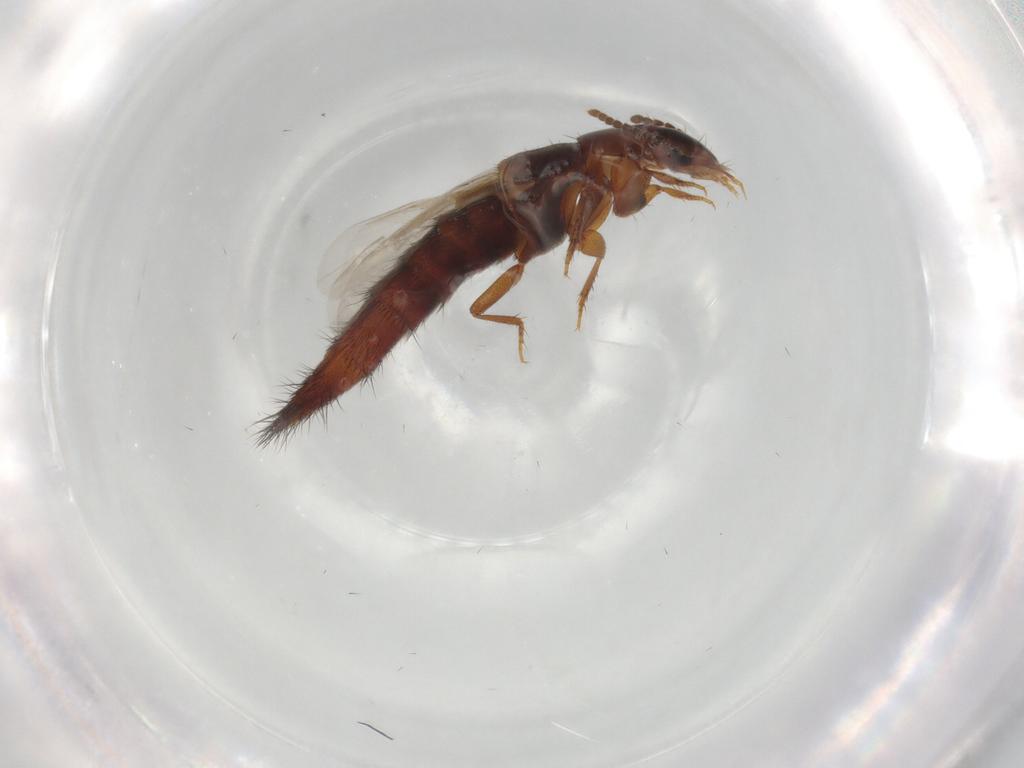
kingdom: Animalia
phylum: Arthropoda
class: Insecta
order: Coleoptera
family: Staphylinidae
